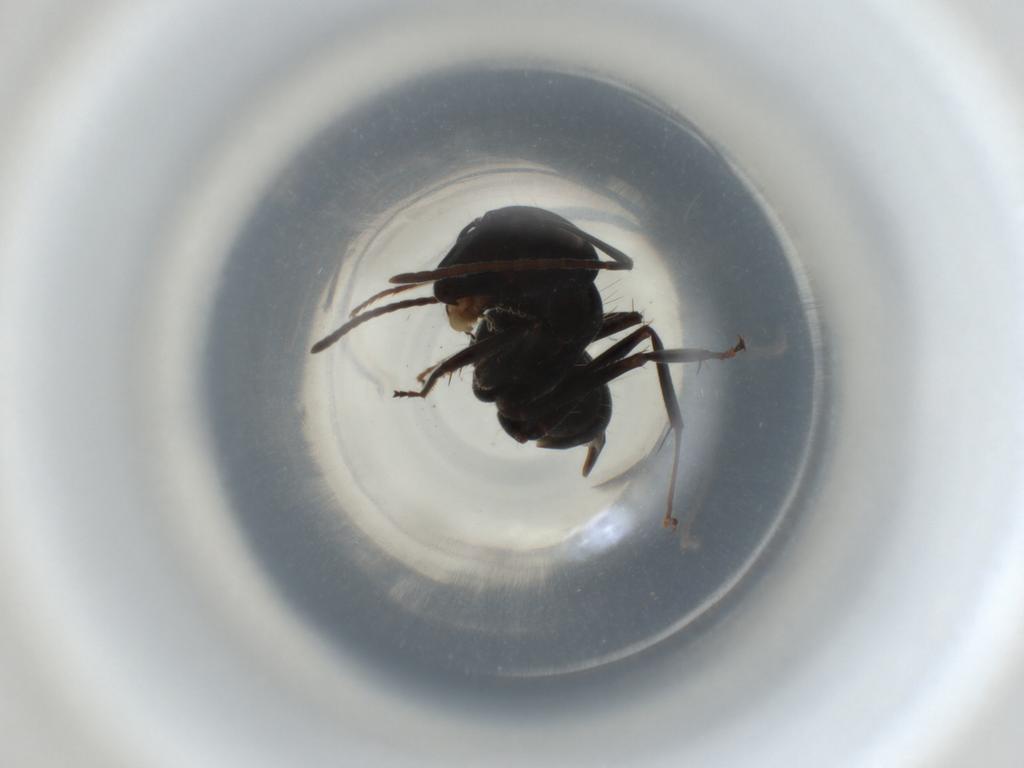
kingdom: Animalia
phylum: Arthropoda
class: Insecta
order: Hymenoptera
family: Formicidae
